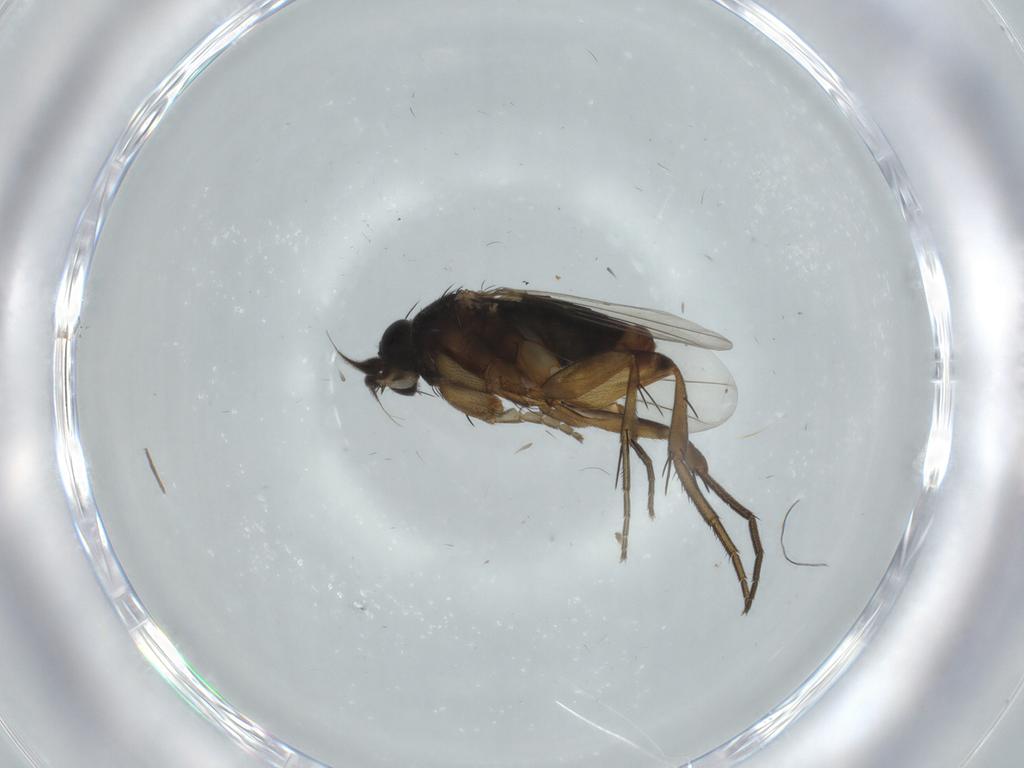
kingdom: Animalia
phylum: Arthropoda
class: Insecta
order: Diptera
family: Phoridae
